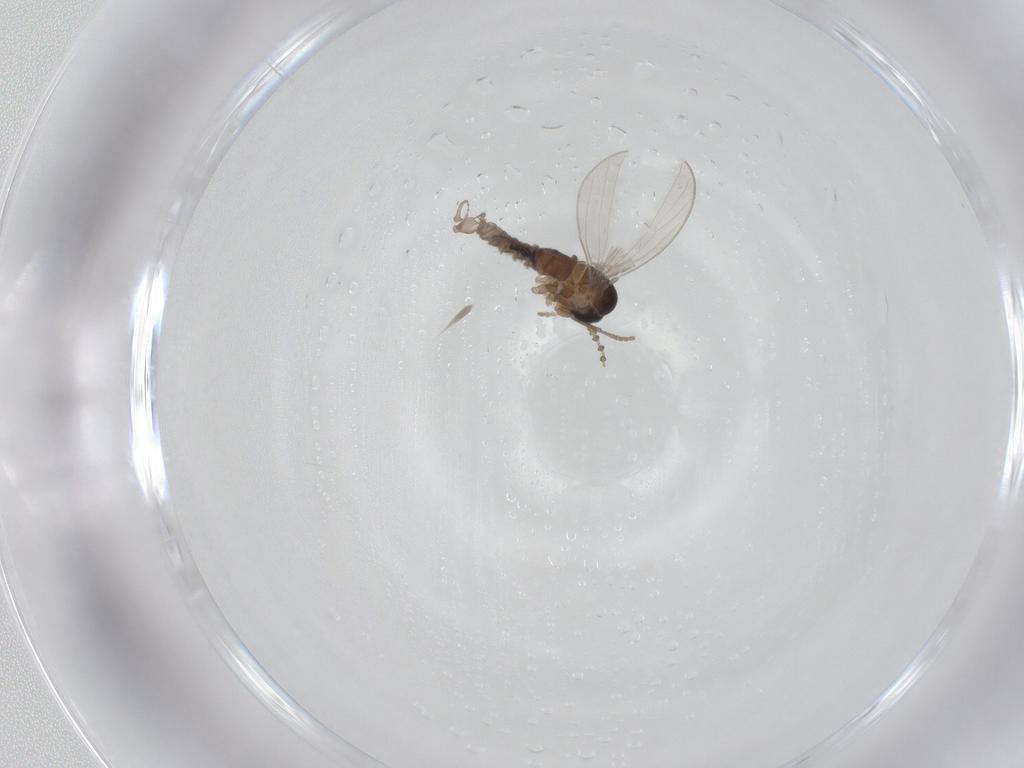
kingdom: Animalia
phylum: Arthropoda
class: Insecta
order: Diptera
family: Psychodidae
